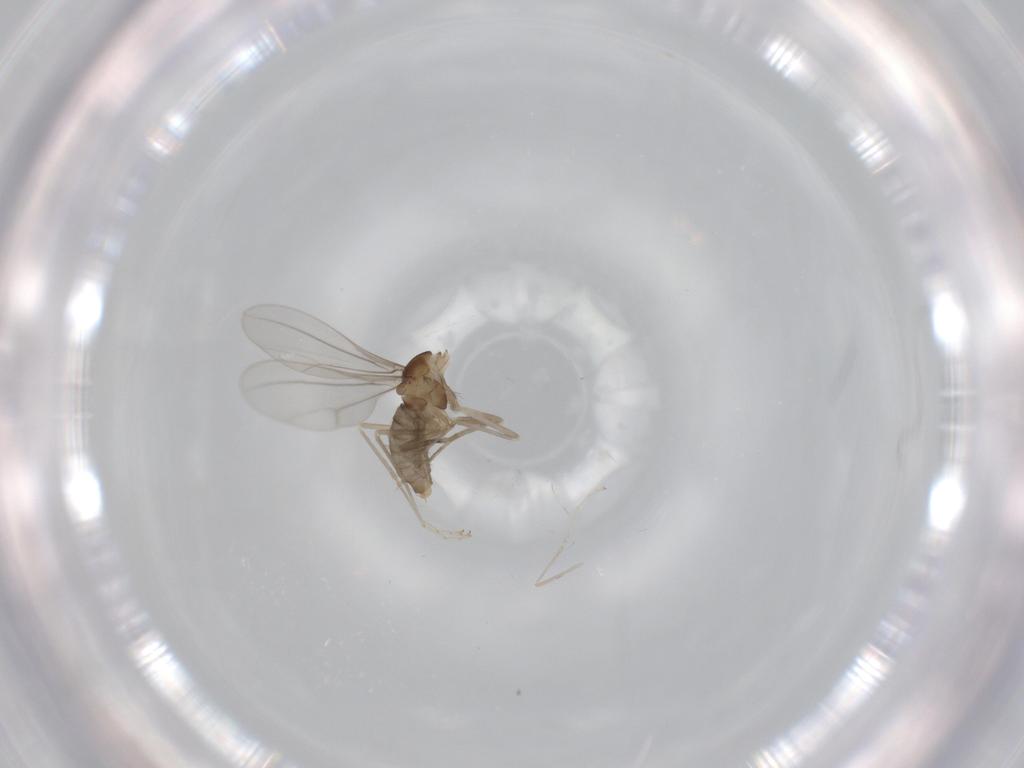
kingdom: Animalia
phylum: Arthropoda
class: Insecta
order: Diptera
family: Cecidomyiidae
